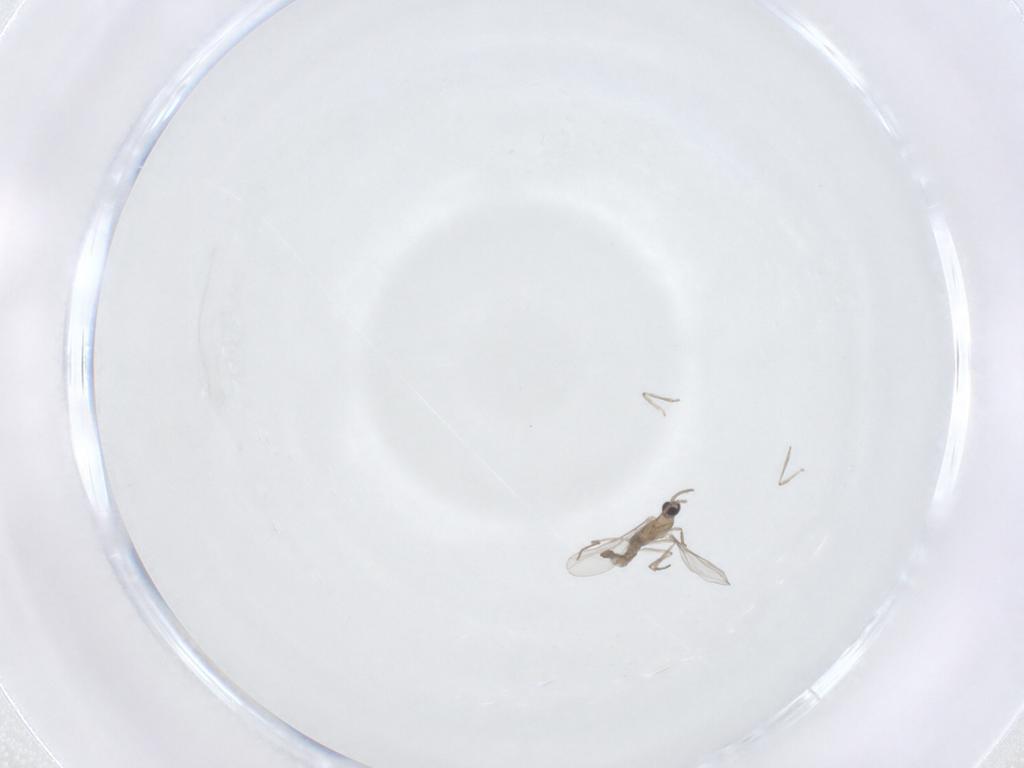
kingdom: Animalia
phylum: Arthropoda
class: Insecta
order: Diptera
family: Cecidomyiidae
